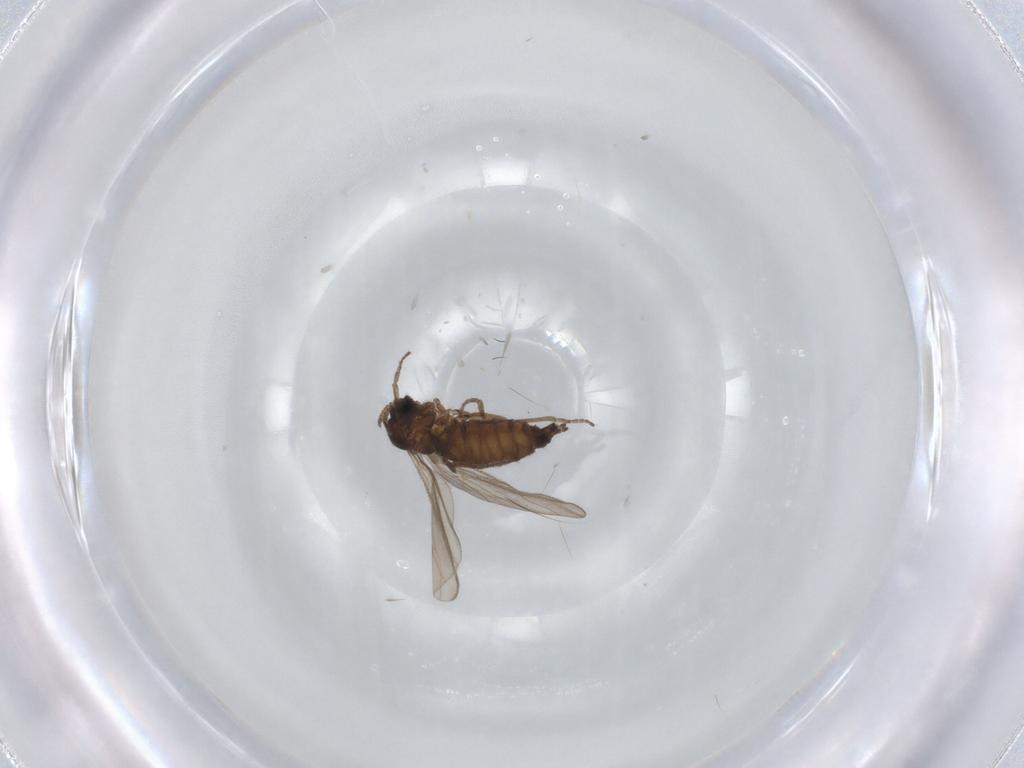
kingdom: Animalia
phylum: Arthropoda
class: Insecta
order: Diptera
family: Sciaridae
